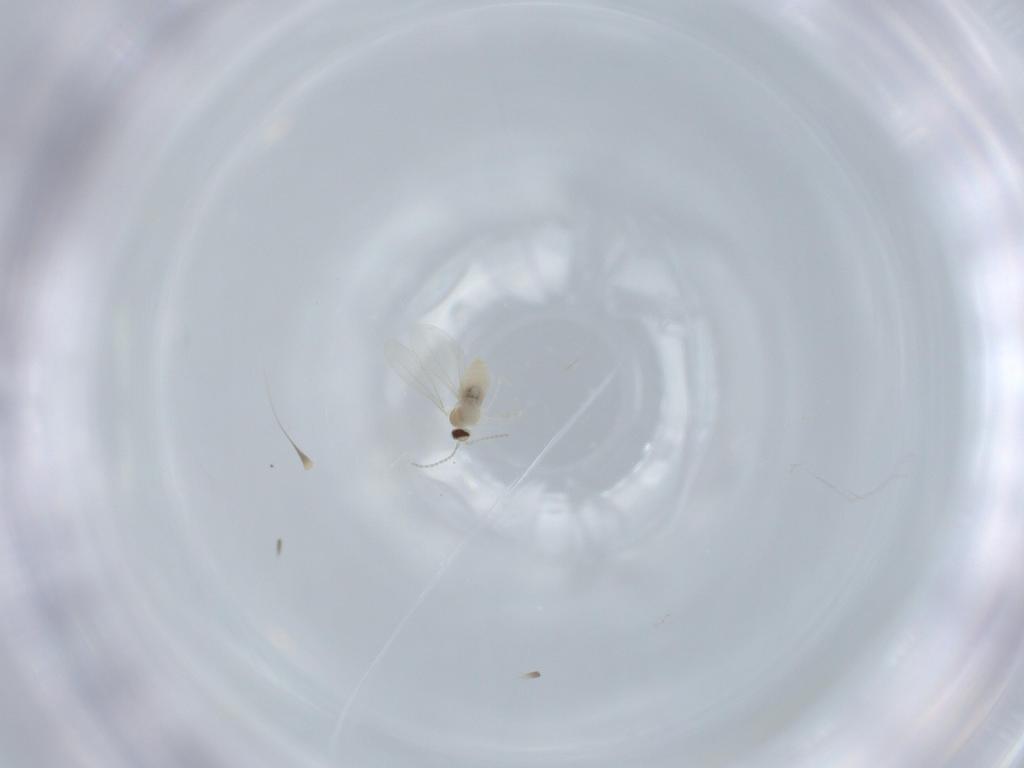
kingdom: Animalia
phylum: Arthropoda
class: Insecta
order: Diptera
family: Cecidomyiidae
